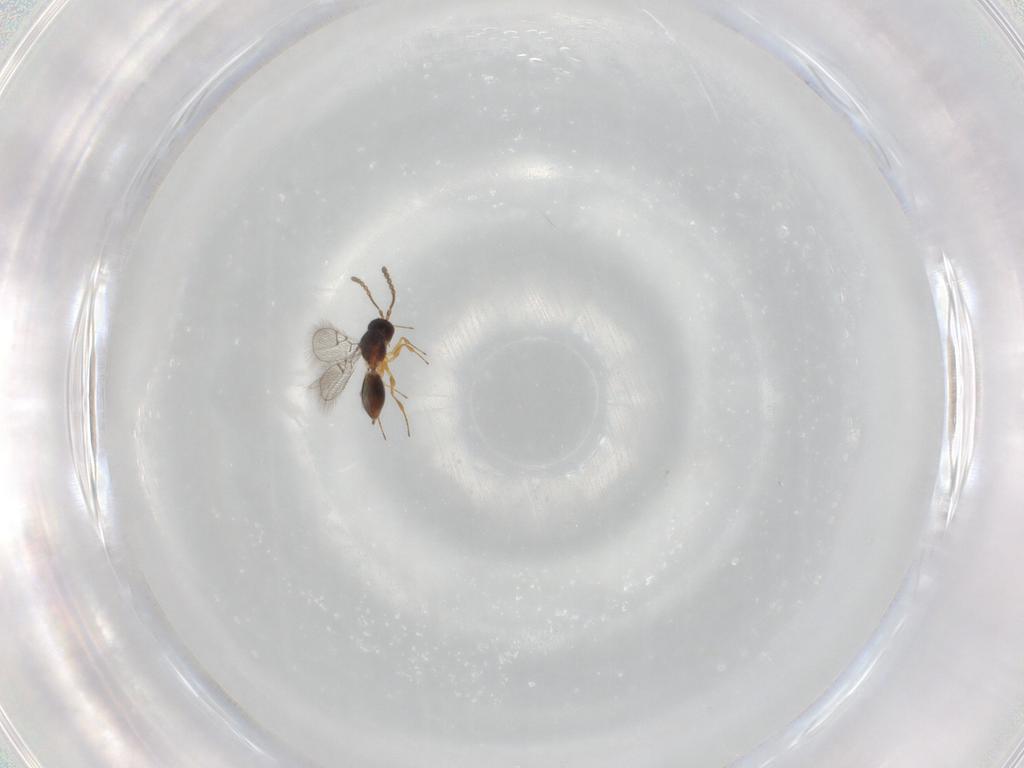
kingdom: Animalia
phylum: Arthropoda
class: Insecta
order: Hymenoptera
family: Figitidae
